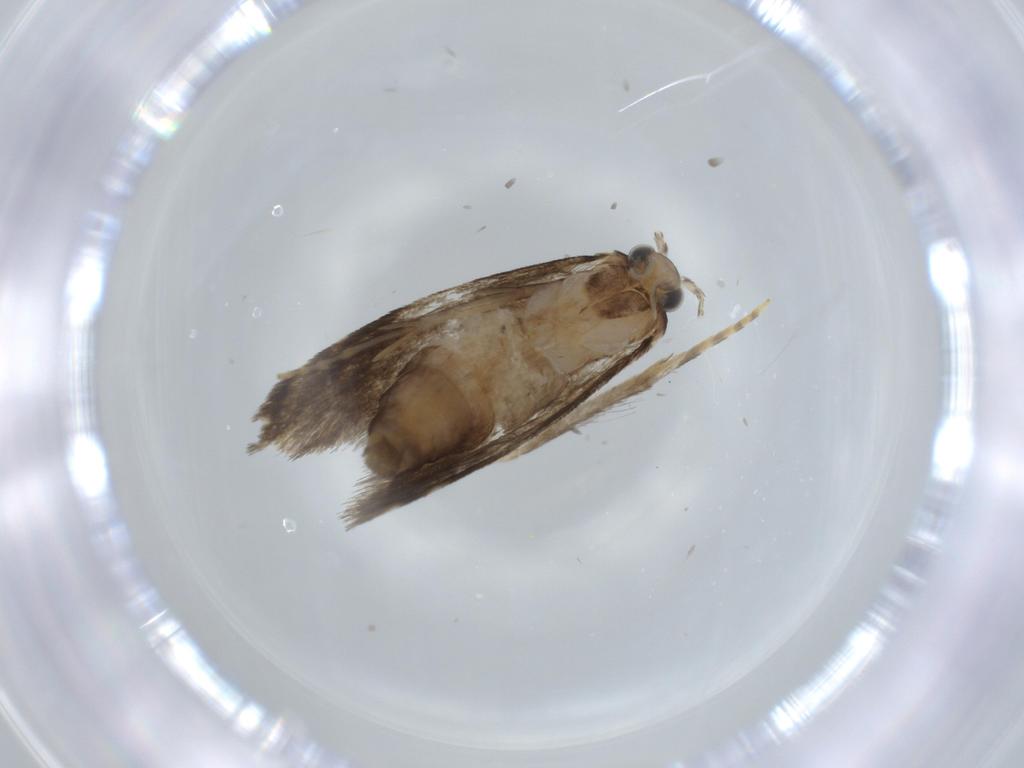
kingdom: Animalia
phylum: Arthropoda
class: Insecta
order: Lepidoptera
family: Tineidae
